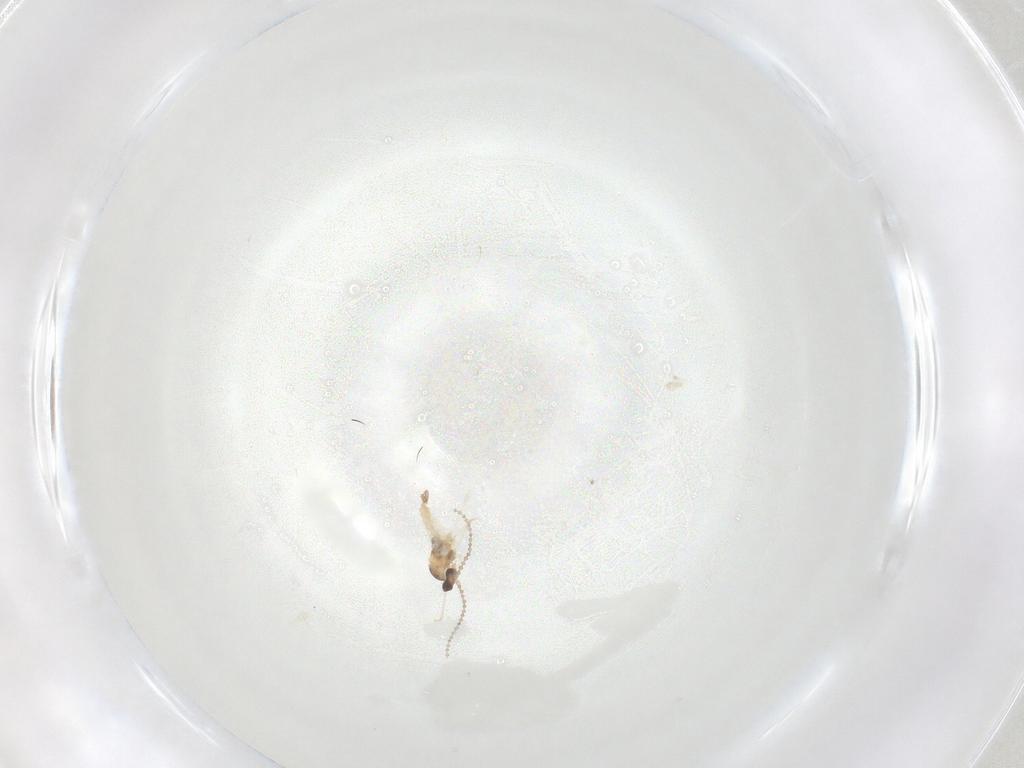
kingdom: Animalia
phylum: Arthropoda
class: Insecta
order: Diptera
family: Cecidomyiidae
